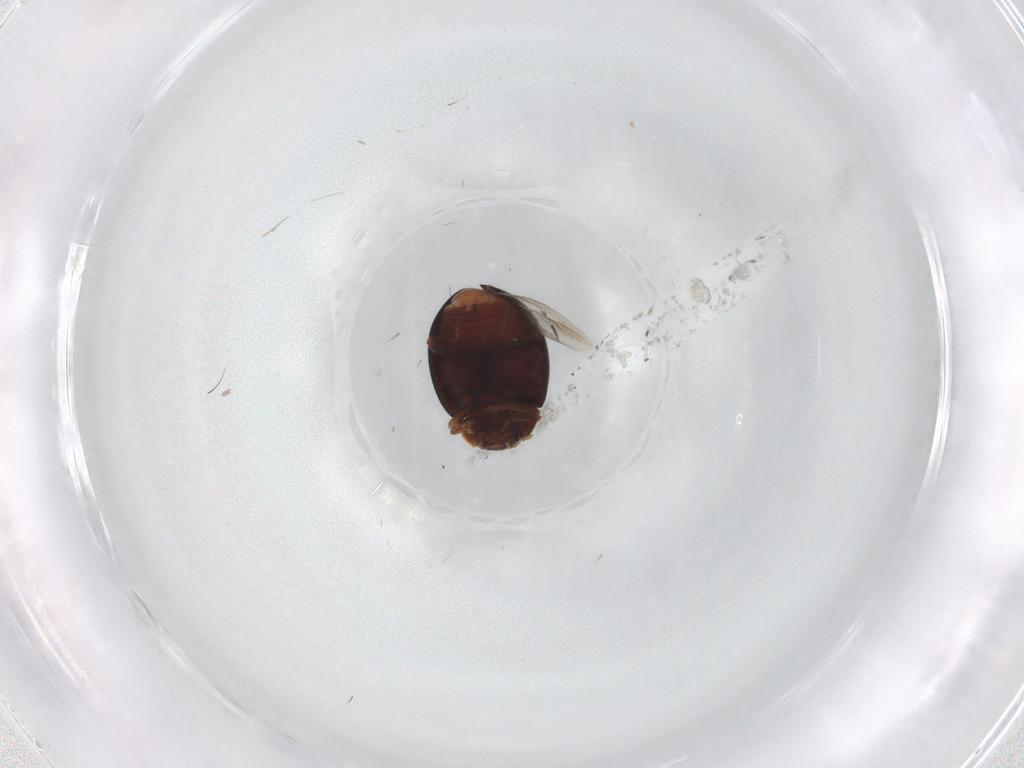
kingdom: Animalia
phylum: Arthropoda
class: Insecta
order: Coleoptera
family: Coccinellidae
